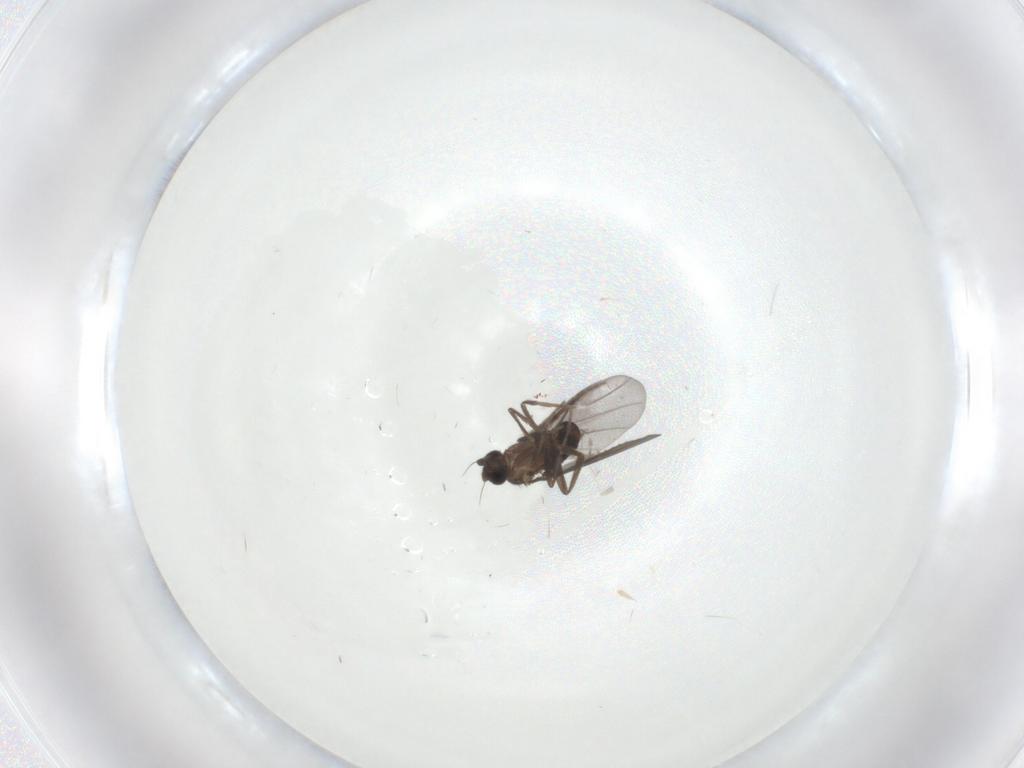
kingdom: Animalia
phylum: Arthropoda
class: Insecta
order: Diptera
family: Sciaridae
